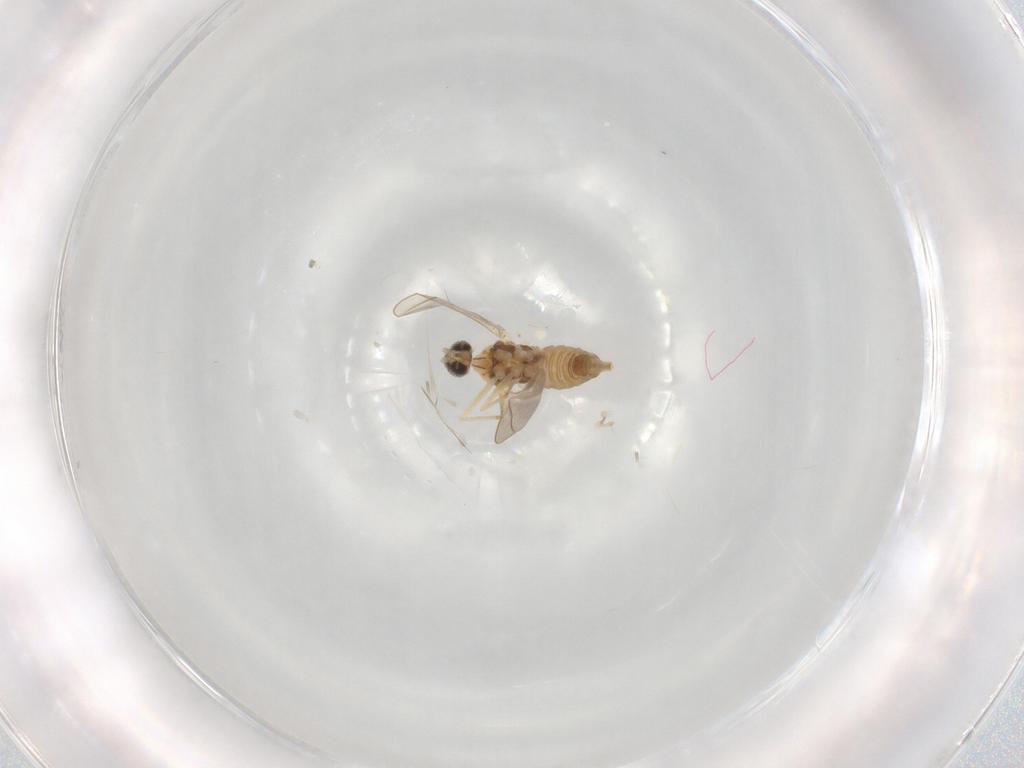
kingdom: Animalia
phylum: Arthropoda
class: Insecta
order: Diptera
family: Cecidomyiidae
